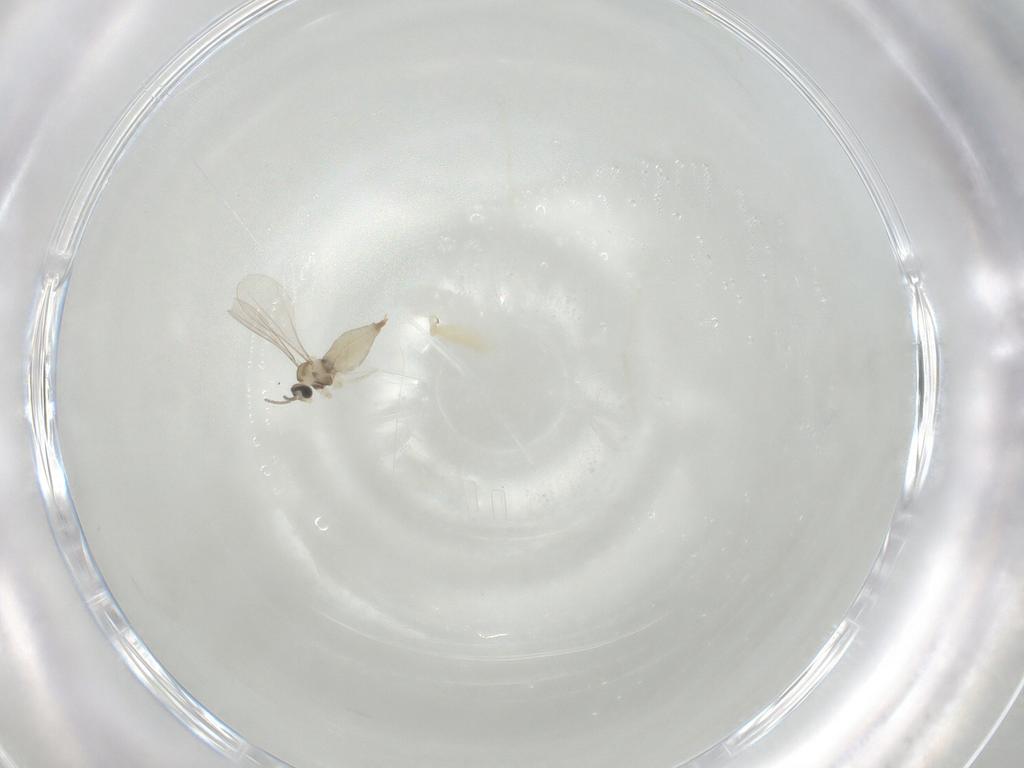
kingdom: Animalia
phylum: Arthropoda
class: Insecta
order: Diptera
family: Cecidomyiidae
